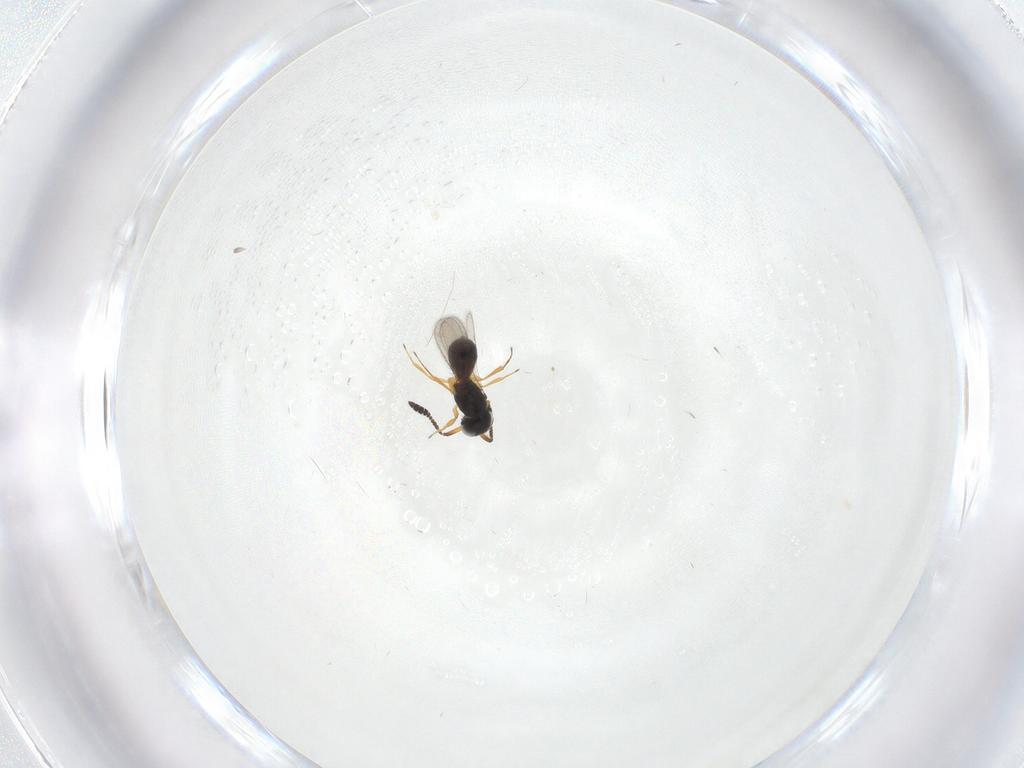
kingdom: Animalia
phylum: Arthropoda
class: Insecta
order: Hymenoptera
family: Scelionidae
